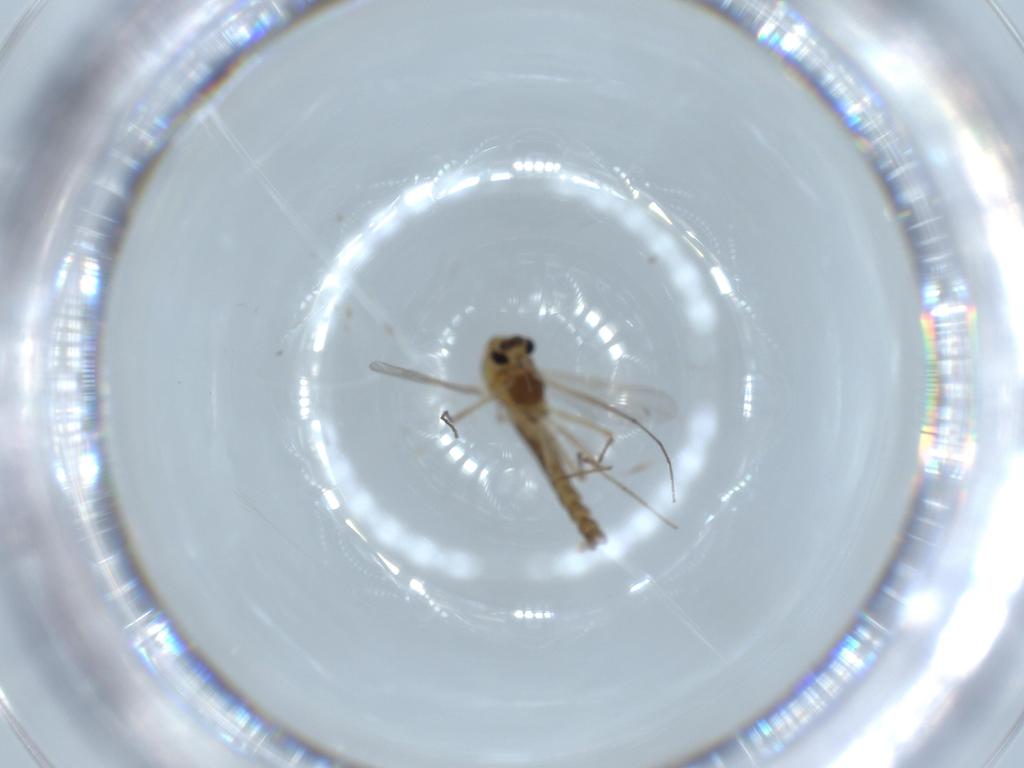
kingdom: Animalia
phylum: Arthropoda
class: Insecta
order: Diptera
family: Chironomidae
